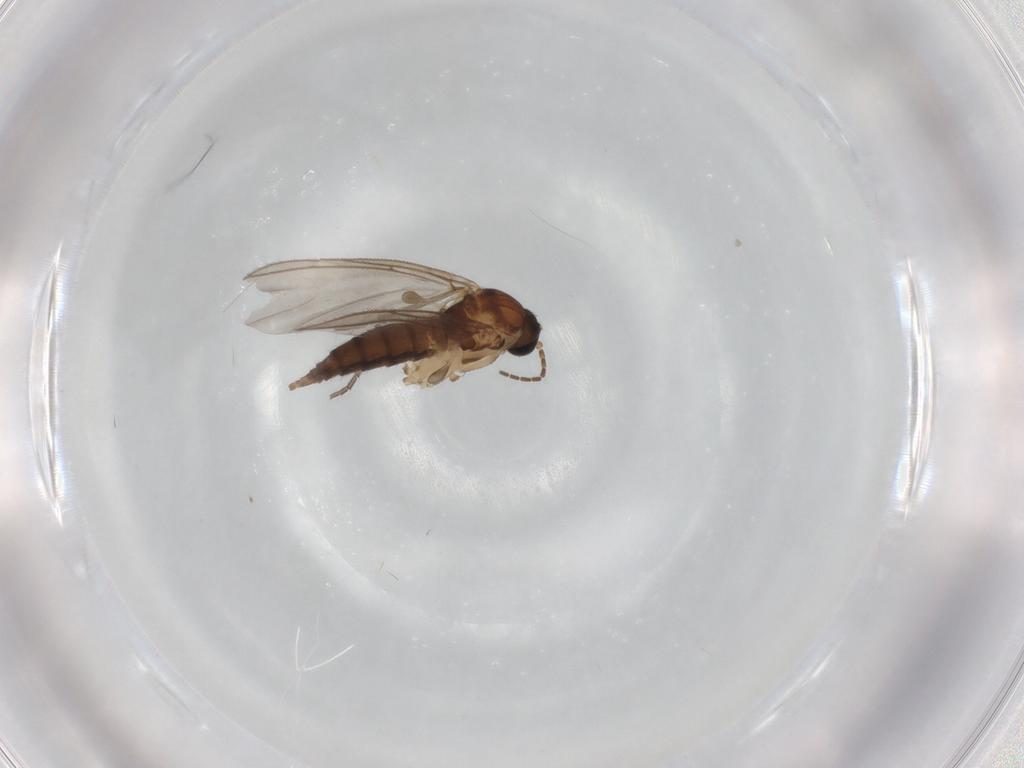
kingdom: Animalia
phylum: Arthropoda
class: Insecta
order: Diptera
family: Sciaridae
